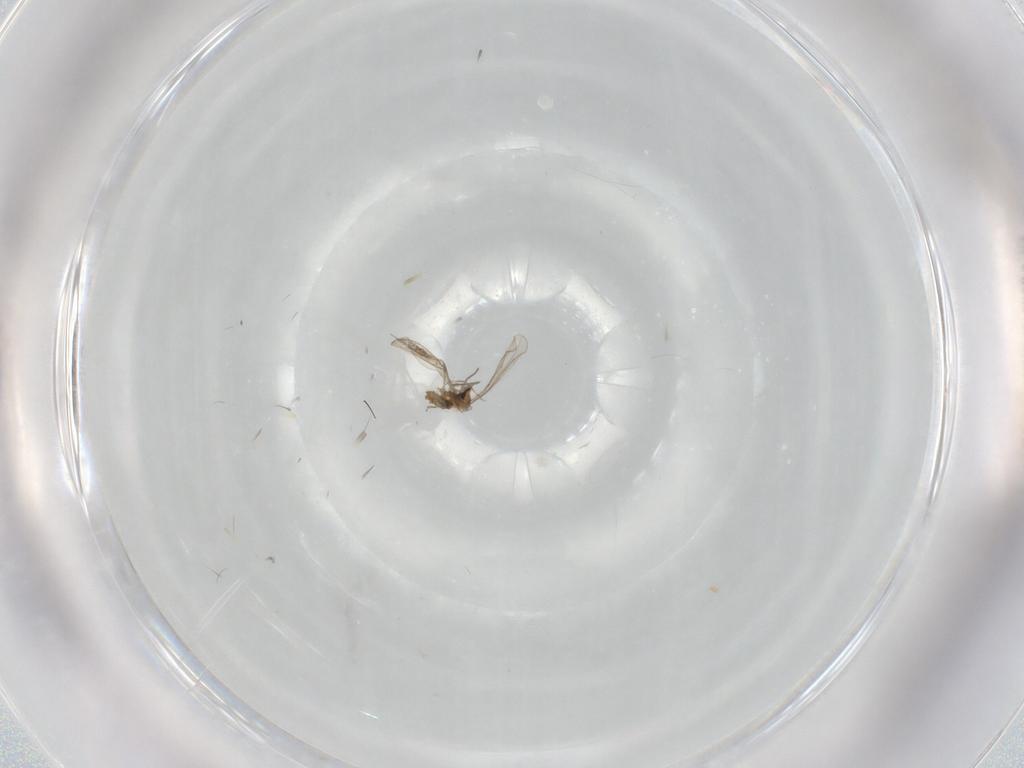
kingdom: Animalia
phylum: Arthropoda
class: Insecta
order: Diptera
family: Cecidomyiidae
